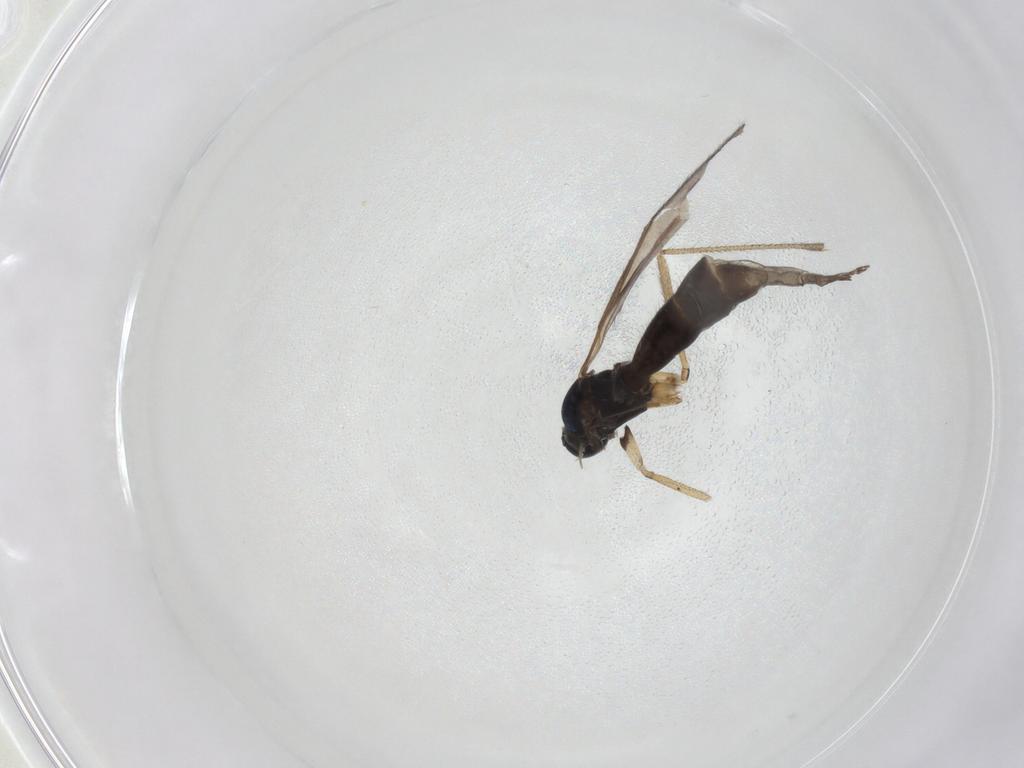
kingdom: Animalia
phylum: Arthropoda
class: Insecta
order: Diptera
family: Sciaridae
